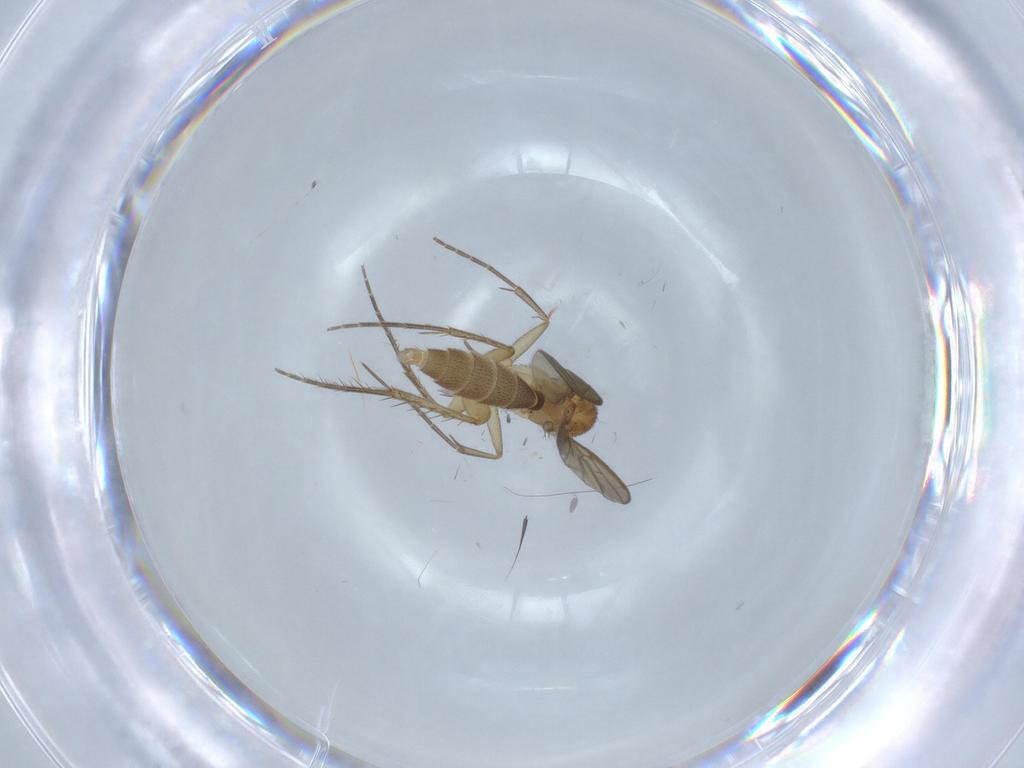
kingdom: Animalia
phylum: Arthropoda
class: Insecta
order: Diptera
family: Mycetophilidae
